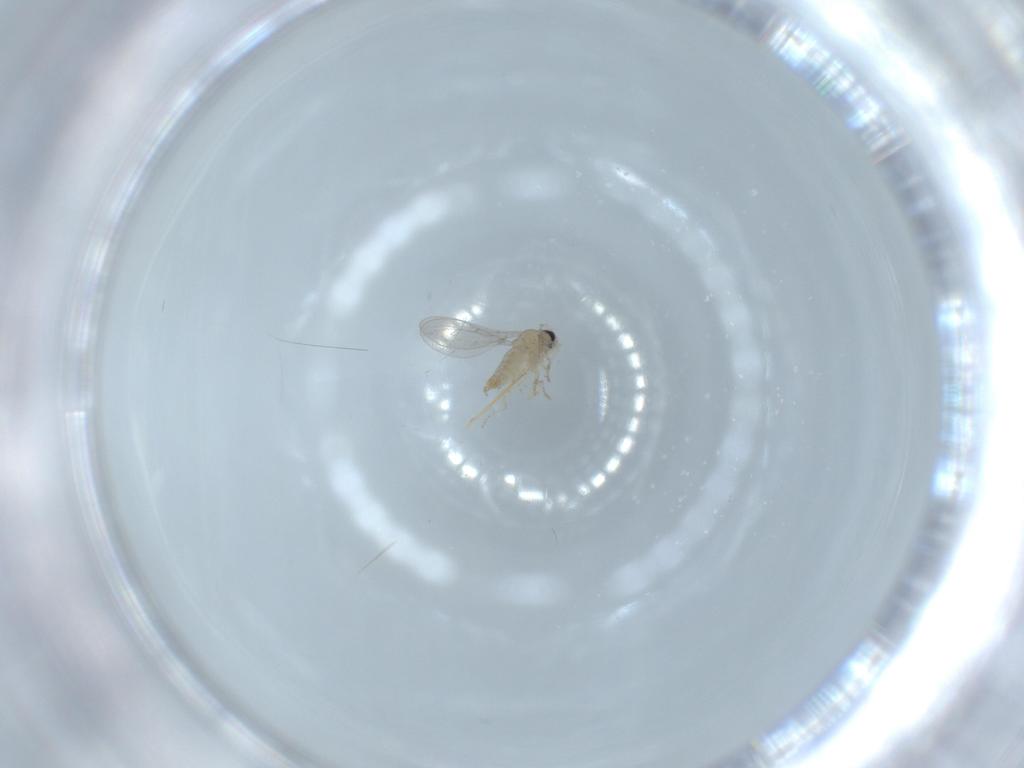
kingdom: Animalia
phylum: Arthropoda
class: Insecta
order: Diptera
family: Cecidomyiidae
